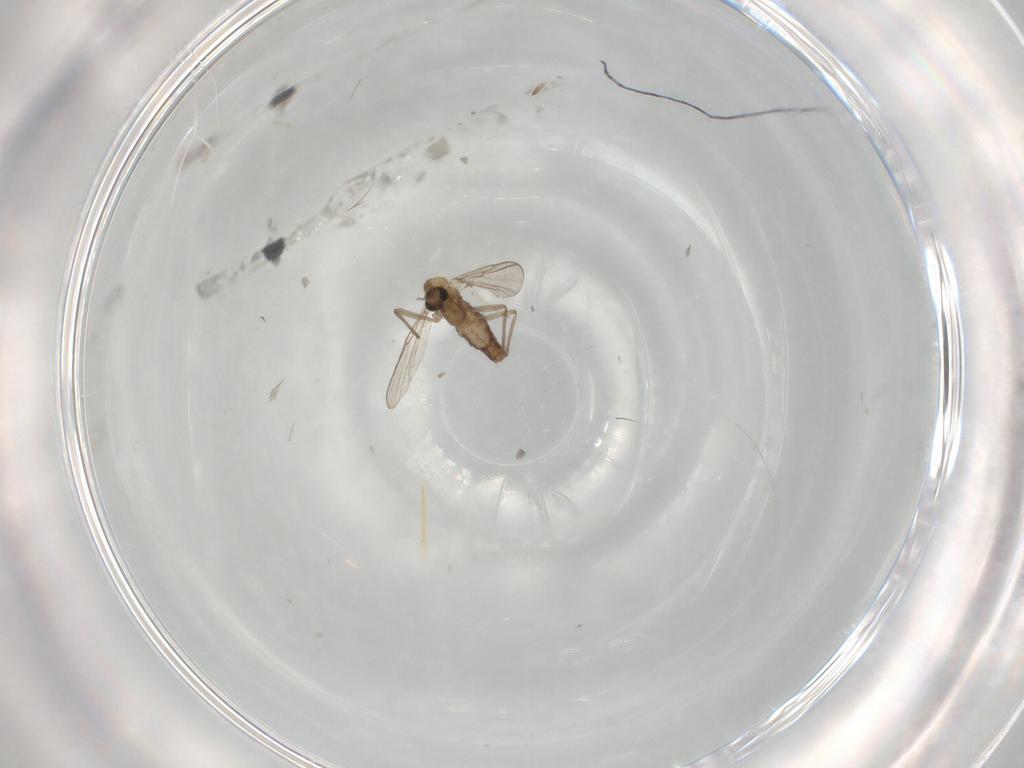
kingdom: Animalia
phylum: Arthropoda
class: Insecta
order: Diptera
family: Chironomidae
